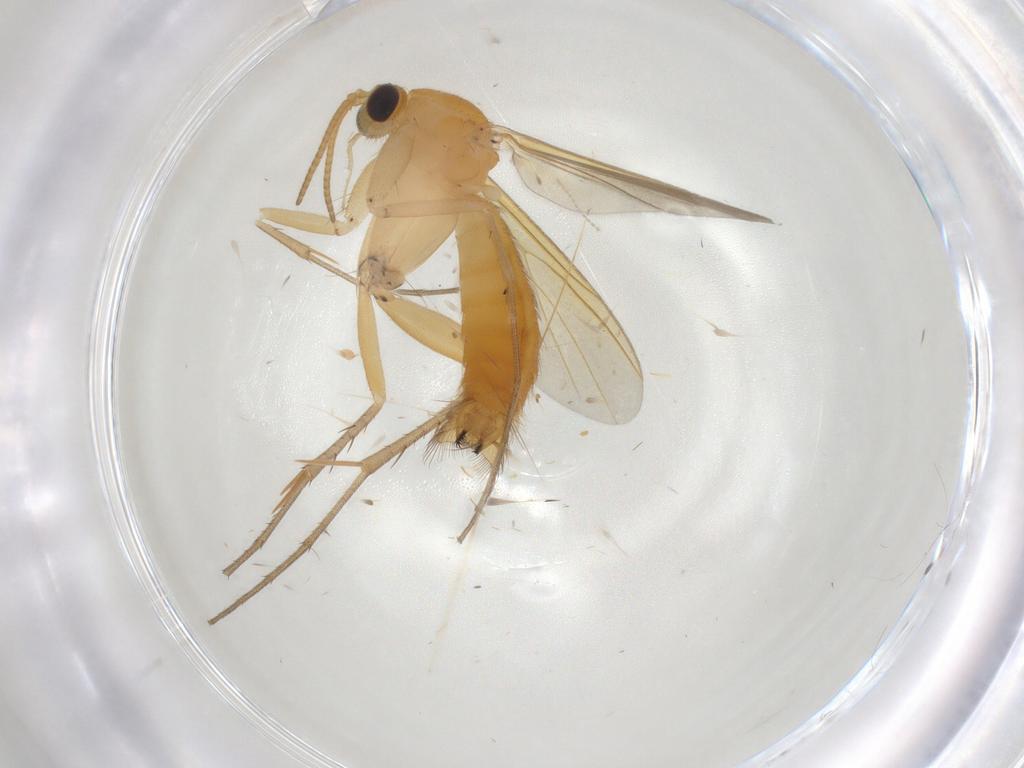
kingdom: Animalia
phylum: Arthropoda
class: Insecta
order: Diptera
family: Mycetophilidae
